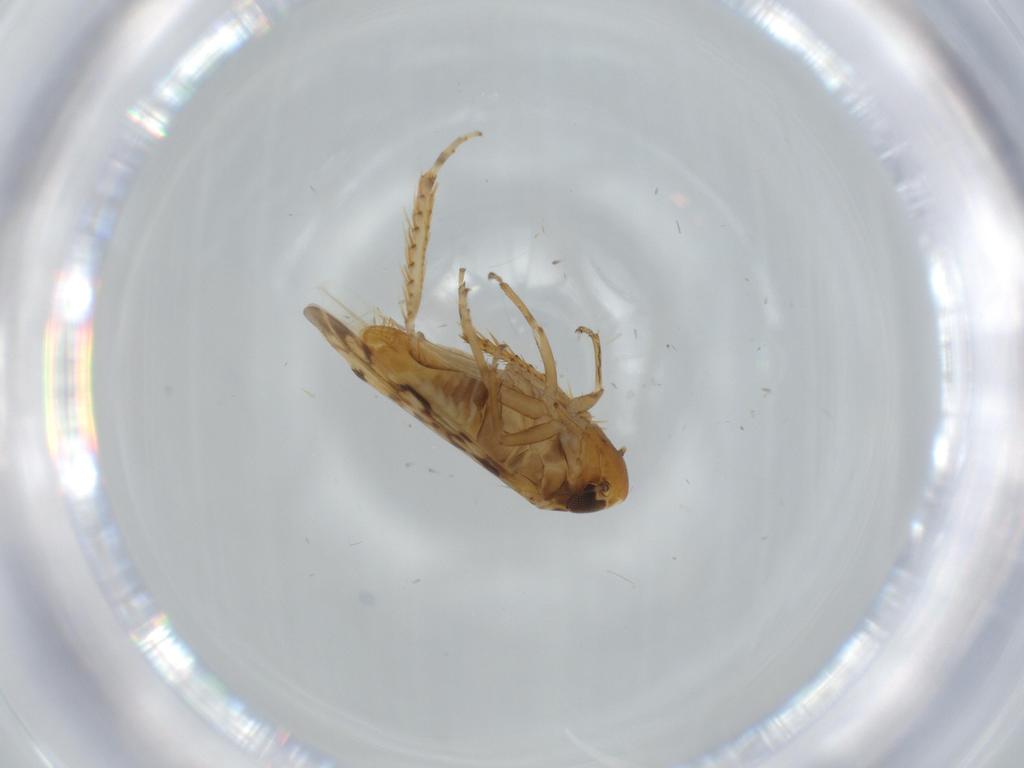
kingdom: Animalia
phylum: Arthropoda
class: Insecta
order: Hemiptera
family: Cicadellidae
